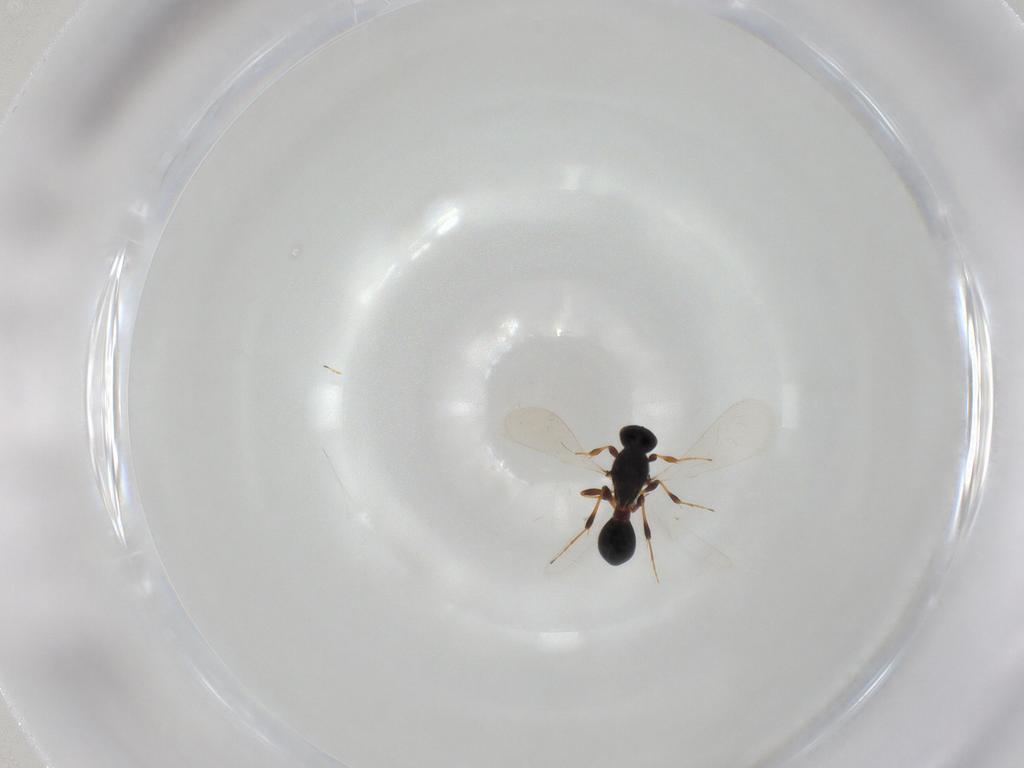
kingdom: Animalia
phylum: Arthropoda
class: Insecta
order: Hymenoptera
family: Platygastridae
